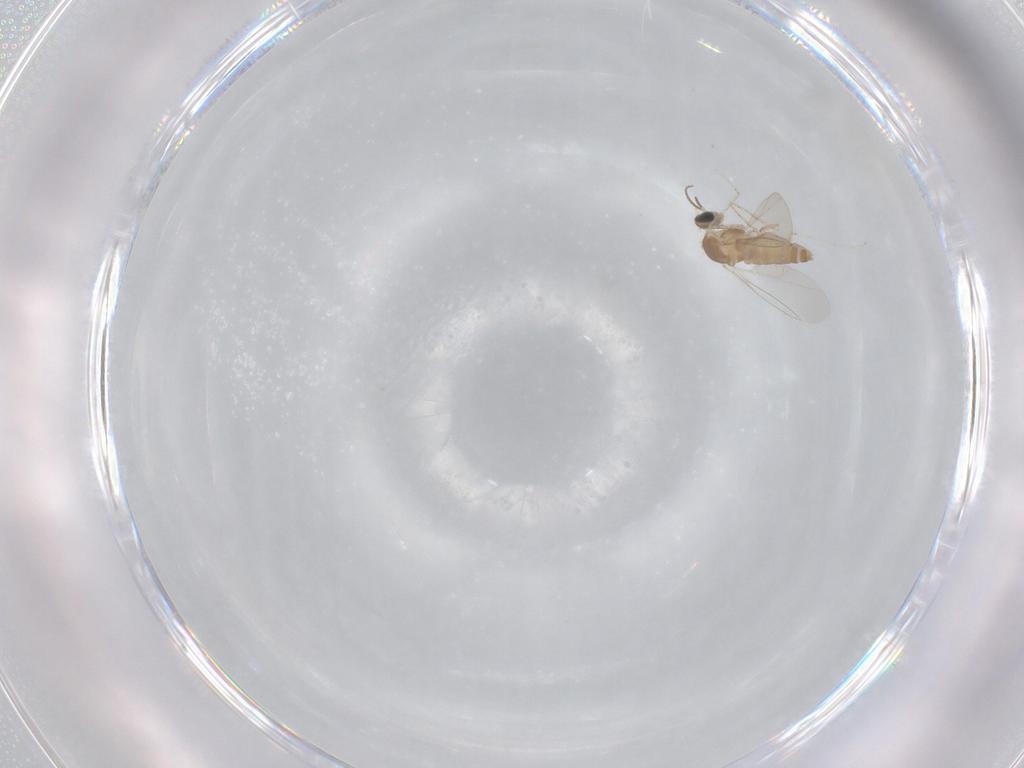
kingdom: Animalia
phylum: Arthropoda
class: Insecta
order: Diptera
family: Cecidomyiidae
